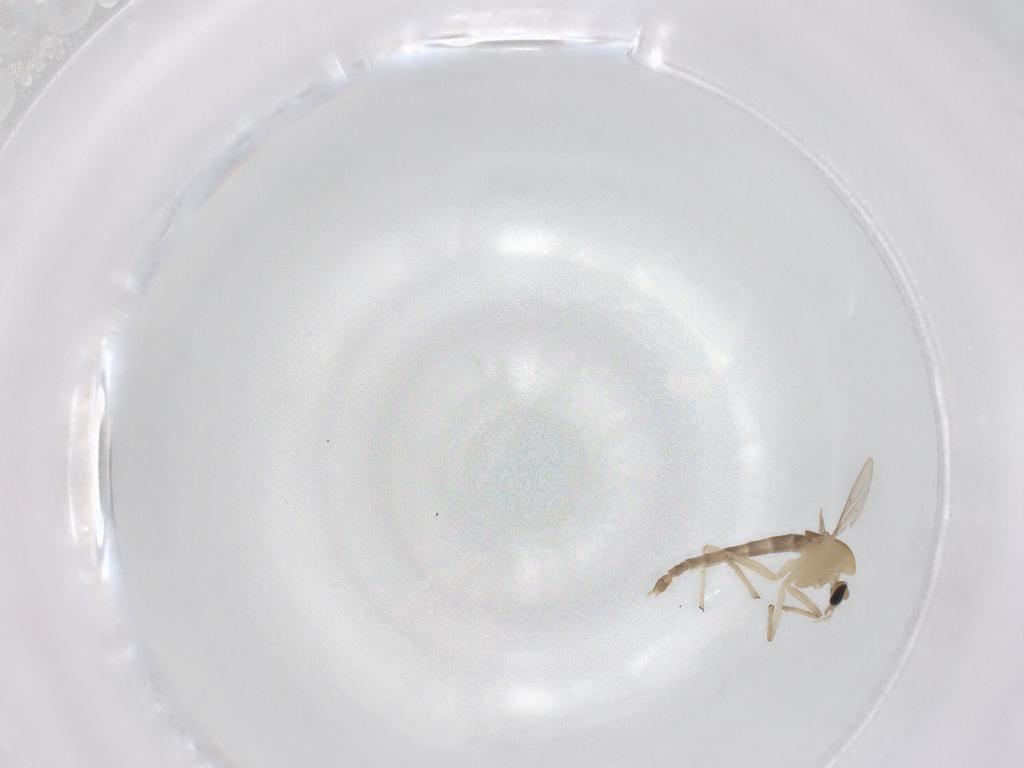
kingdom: Animalia
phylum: Arthropoda
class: Insecta
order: Diptera
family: Chironomidae
